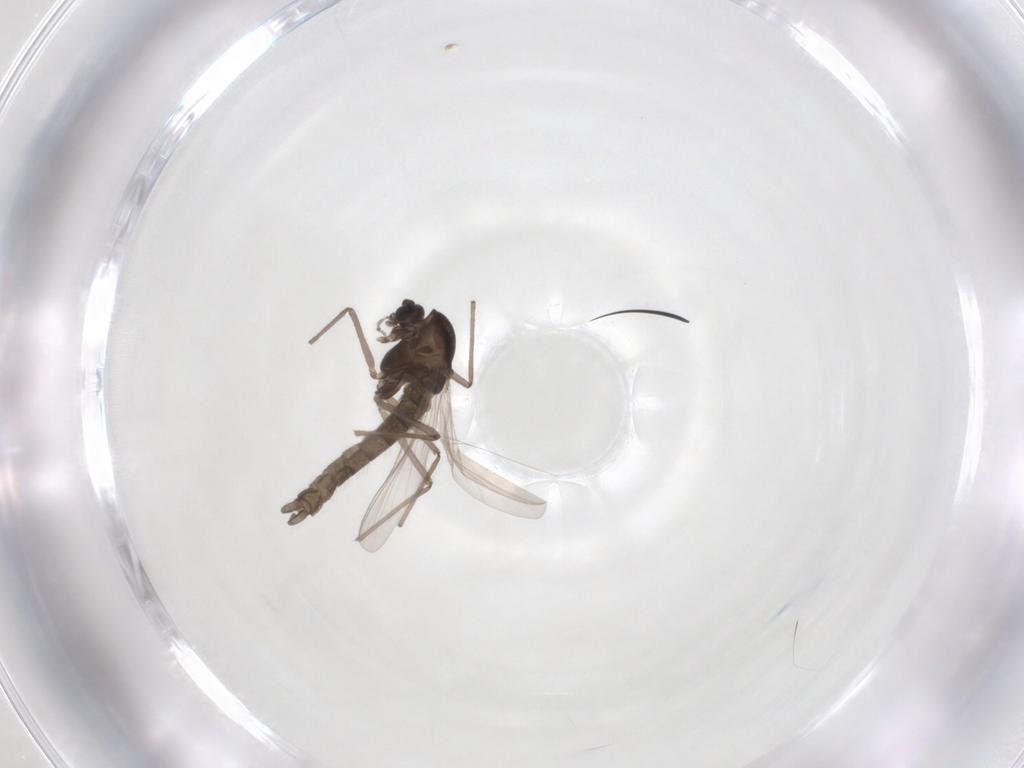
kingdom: Animalia
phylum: Arthropoda
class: Insecta
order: Diptera
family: Chironomidae
